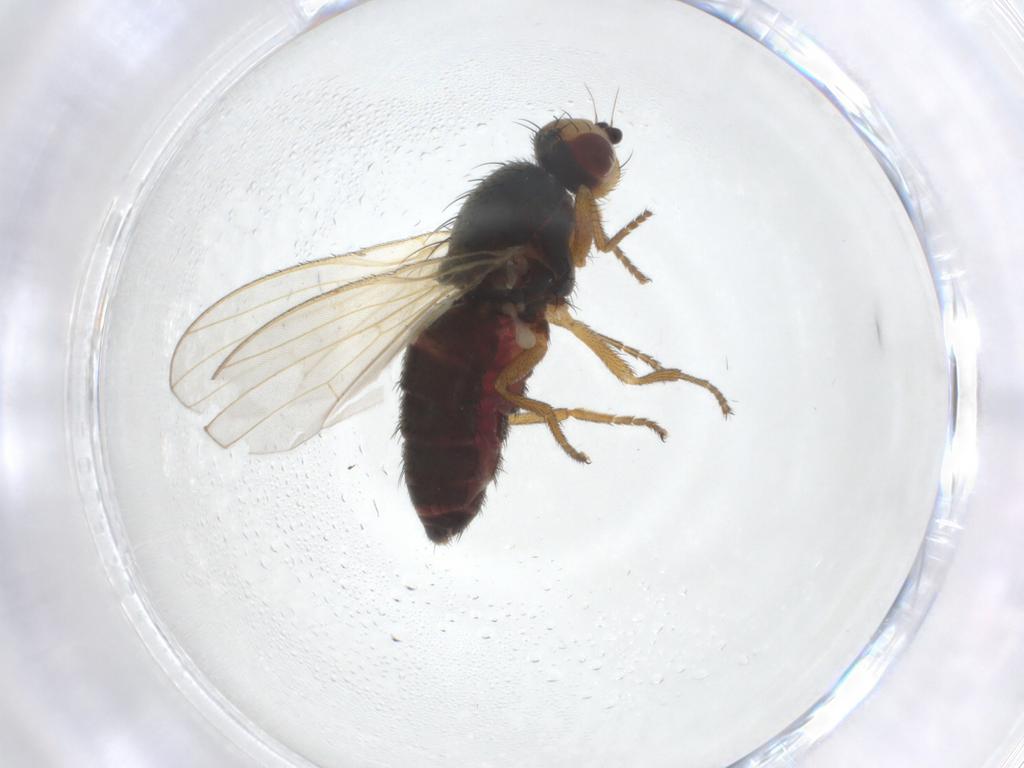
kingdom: Animalia
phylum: Arthropoda
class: Insecta
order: Diptera
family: Heleomyzidae
